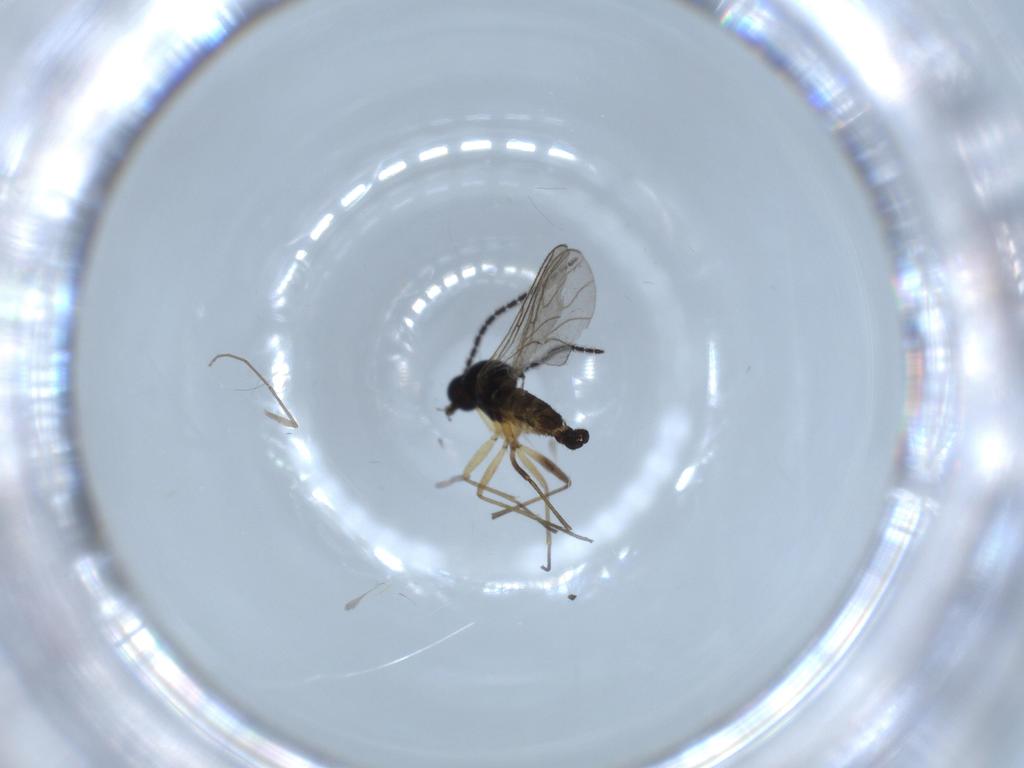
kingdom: Animalia
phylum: Arthropoda
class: Insecta
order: Diptera
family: Sciaridae
